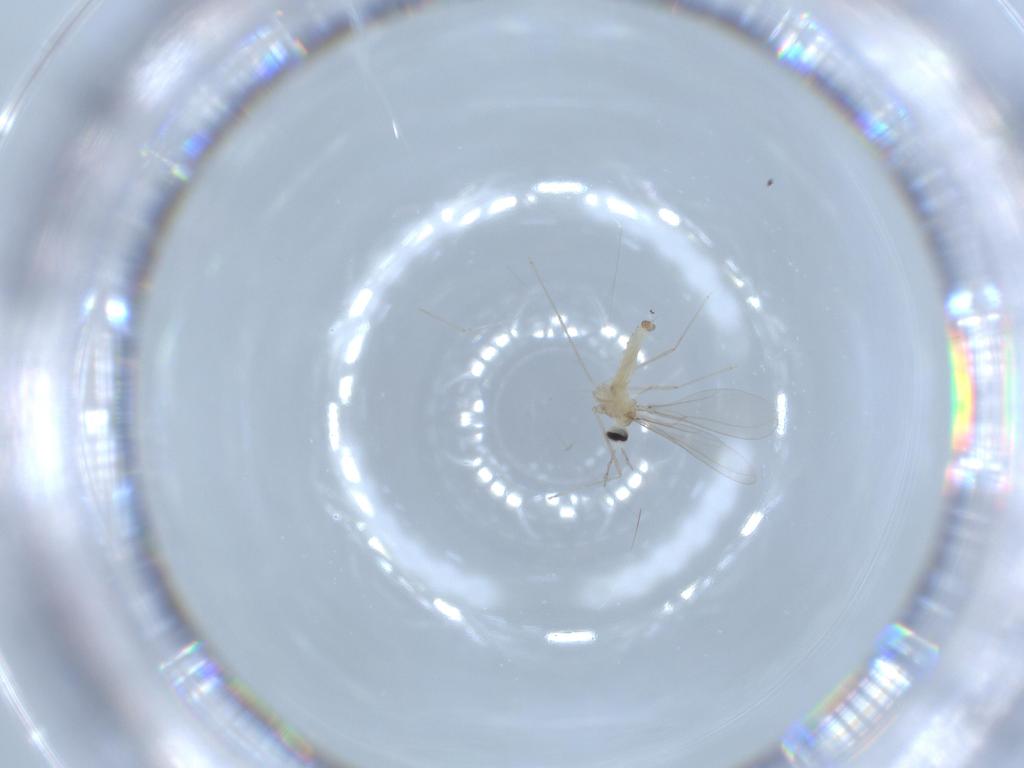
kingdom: Animalia
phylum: Arthropoda
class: Insecta
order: Diptera
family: Cecidomyiidae
